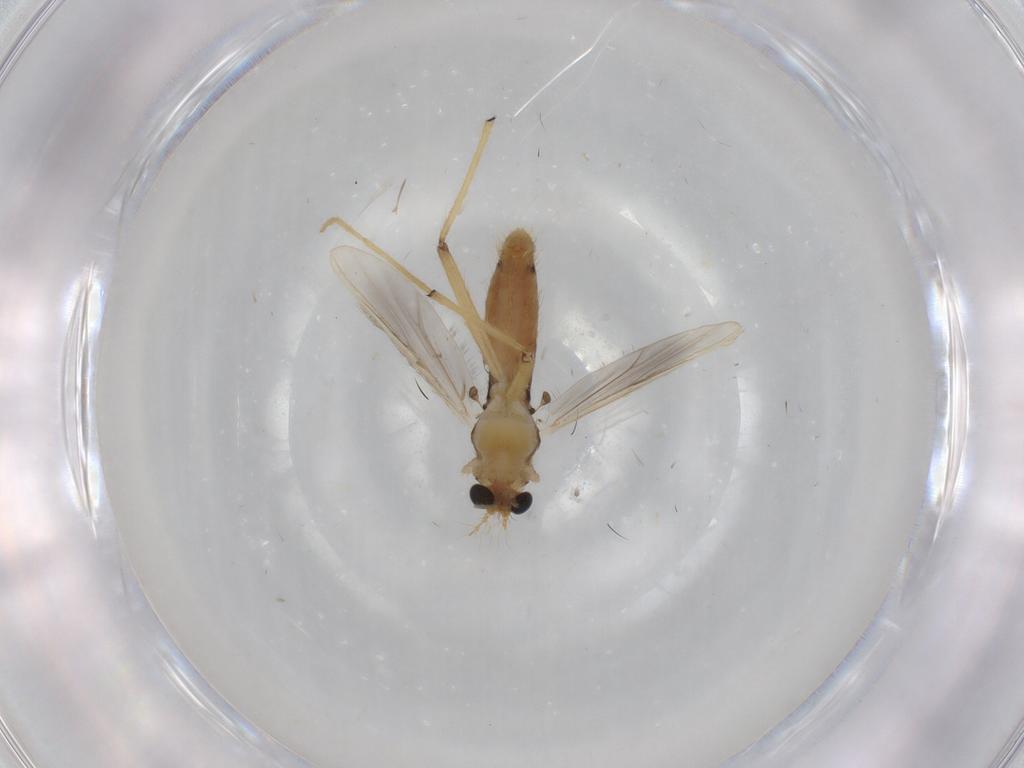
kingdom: Animalia
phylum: Arthropoda
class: Insecta
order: Diptera
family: Chironomidae
